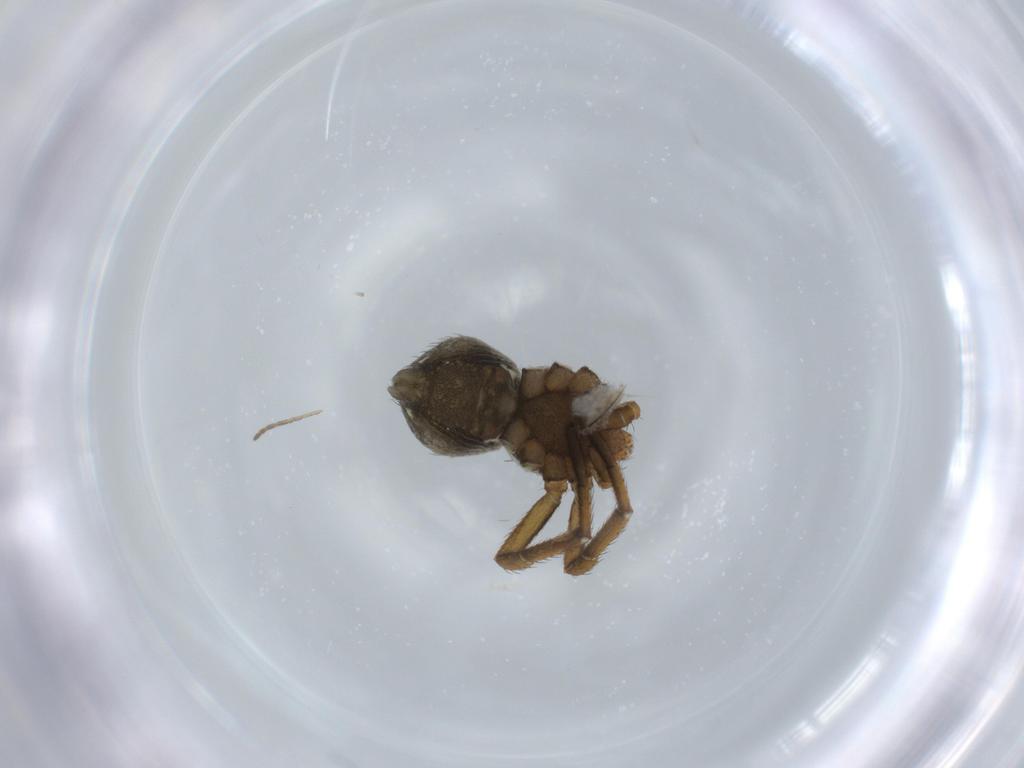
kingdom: Animalia
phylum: Arthropoda
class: Arachnida
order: Araneae
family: Thomisidae
